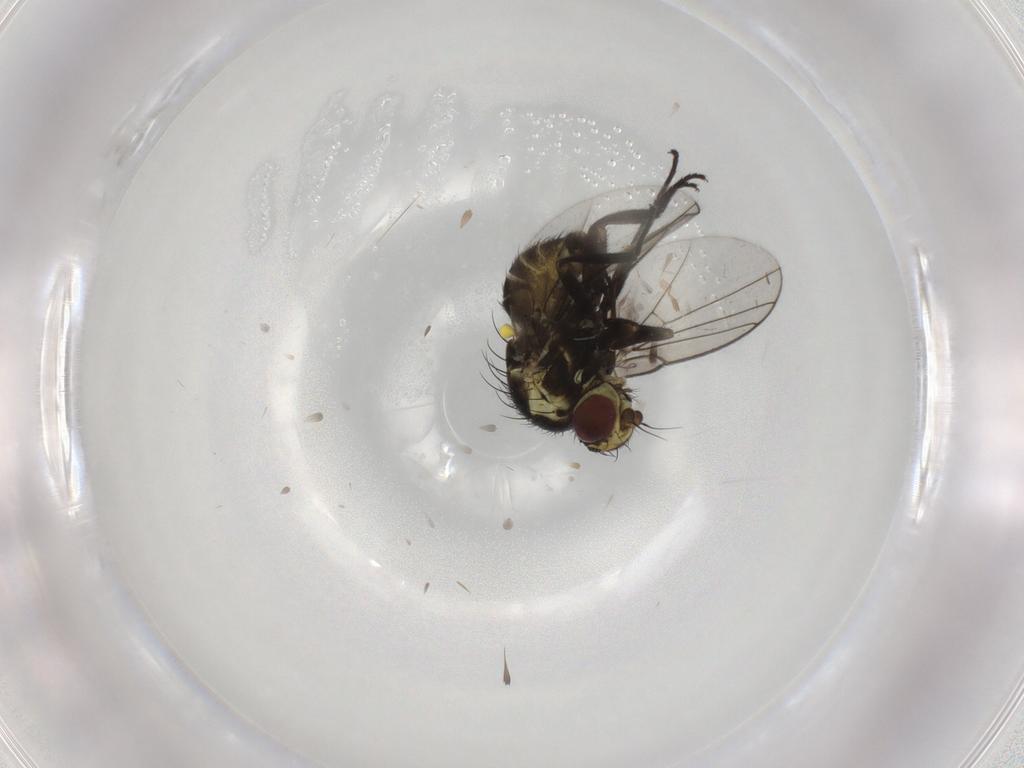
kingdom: Animalia
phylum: Arthropoda
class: Insecta
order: Diptera
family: Agromyzidae
